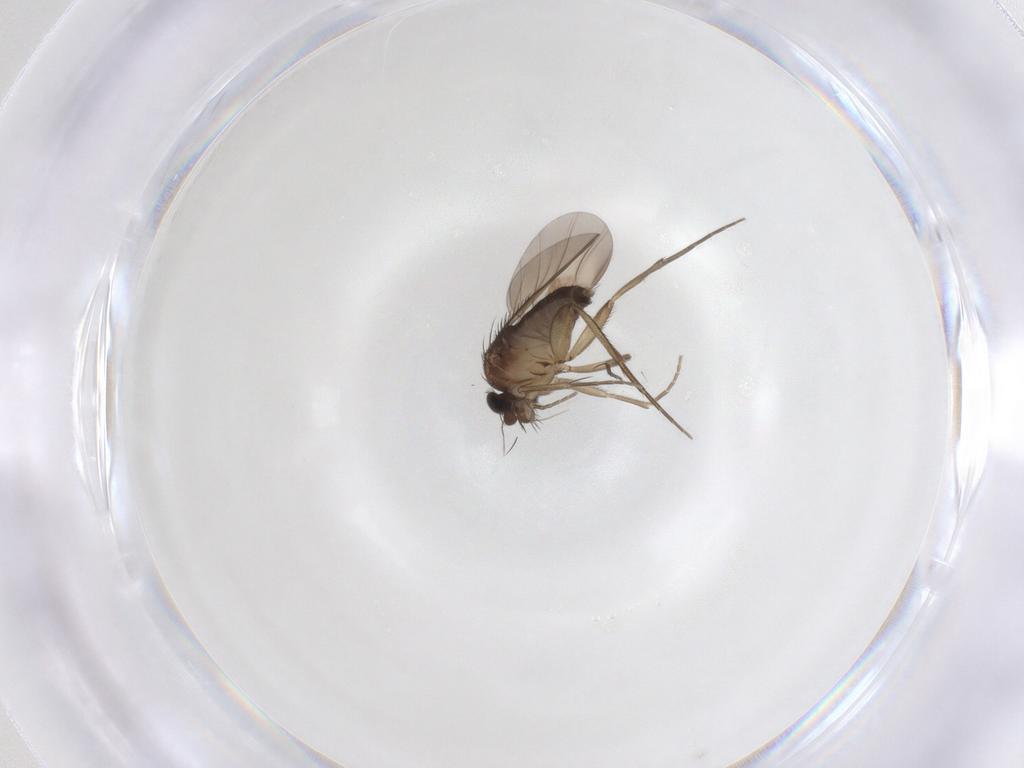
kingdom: Animalia
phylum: Arthropoda
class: Insecta
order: Diptera
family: Phoridae
